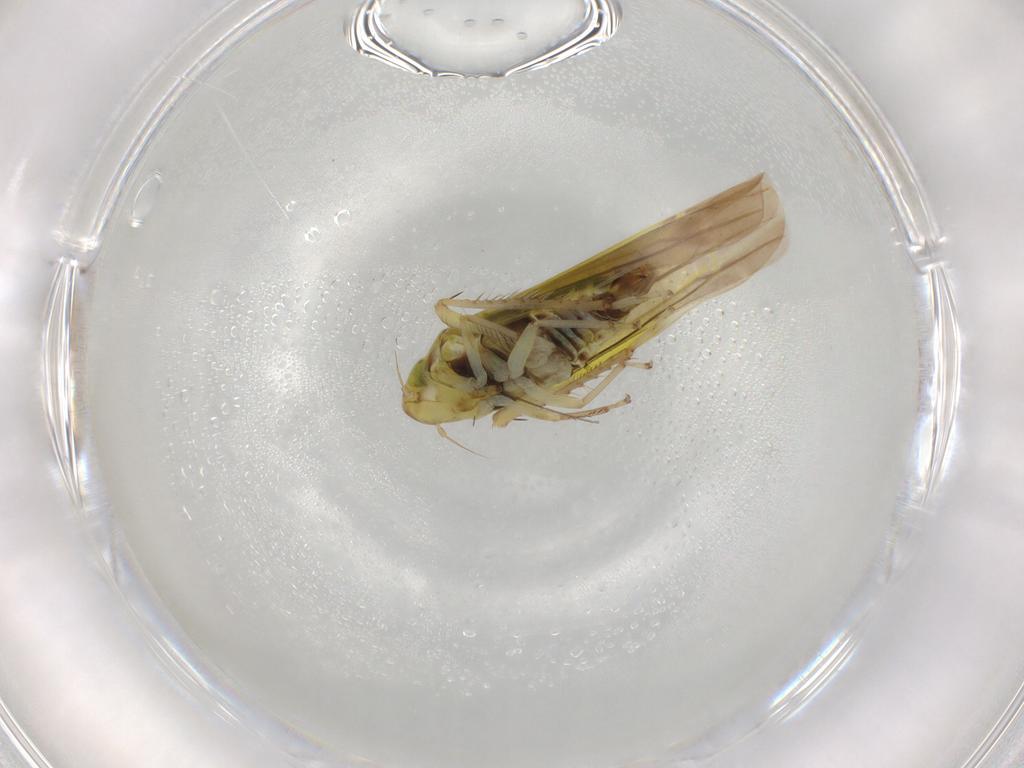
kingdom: Animalia
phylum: Arthropoda
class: Insecta
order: Hemiptera
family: Cicadellidae
